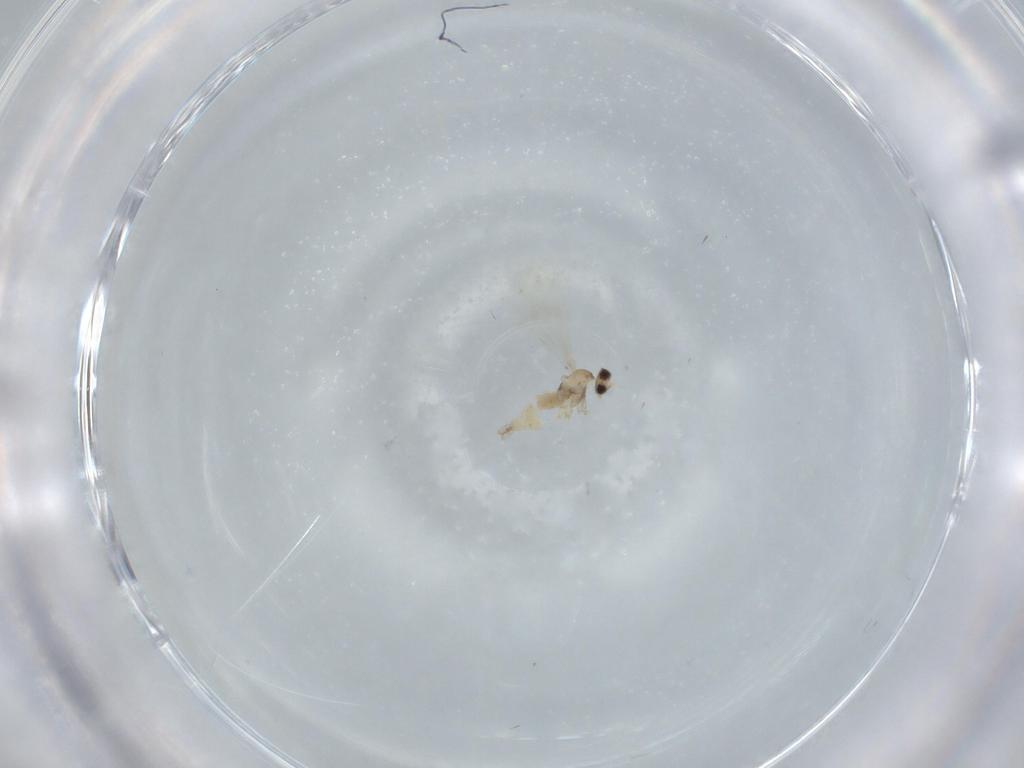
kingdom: Animalia
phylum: Arthropoda
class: Insecta
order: Diptera
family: Cecidomyiidae
